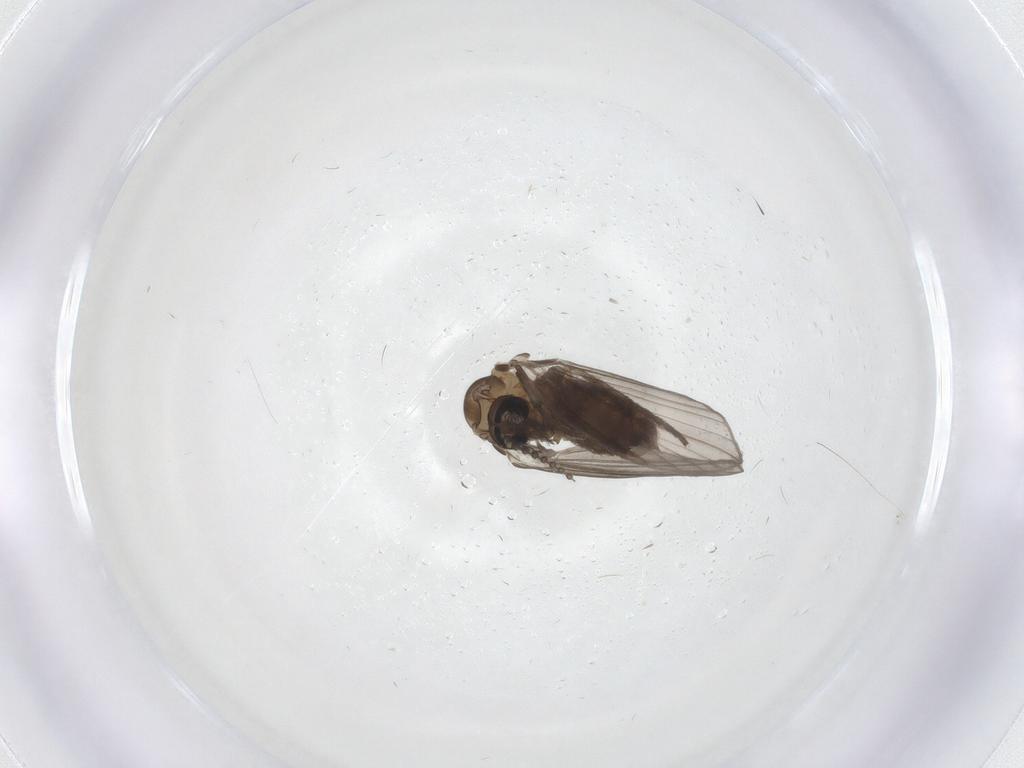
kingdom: Animalia
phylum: Arthropoda
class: Insecta
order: Diptera
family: Psychodidae
